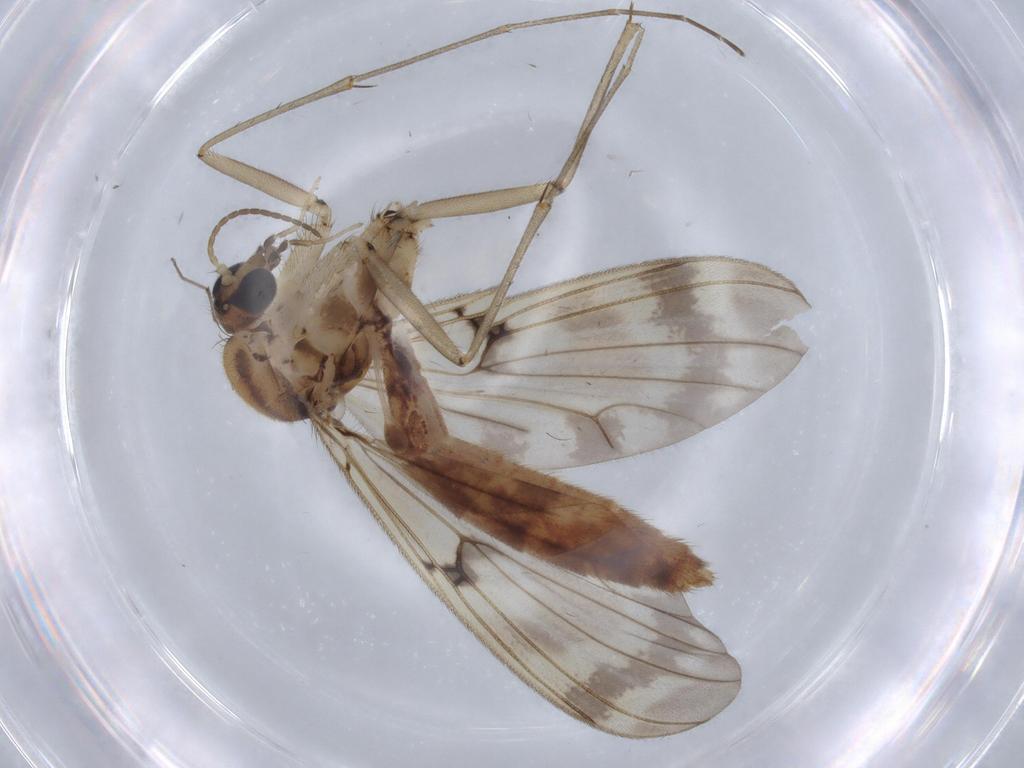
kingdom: Animalia
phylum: Arthropoda
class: Insecta
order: Diptera
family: Mycetophilidae
